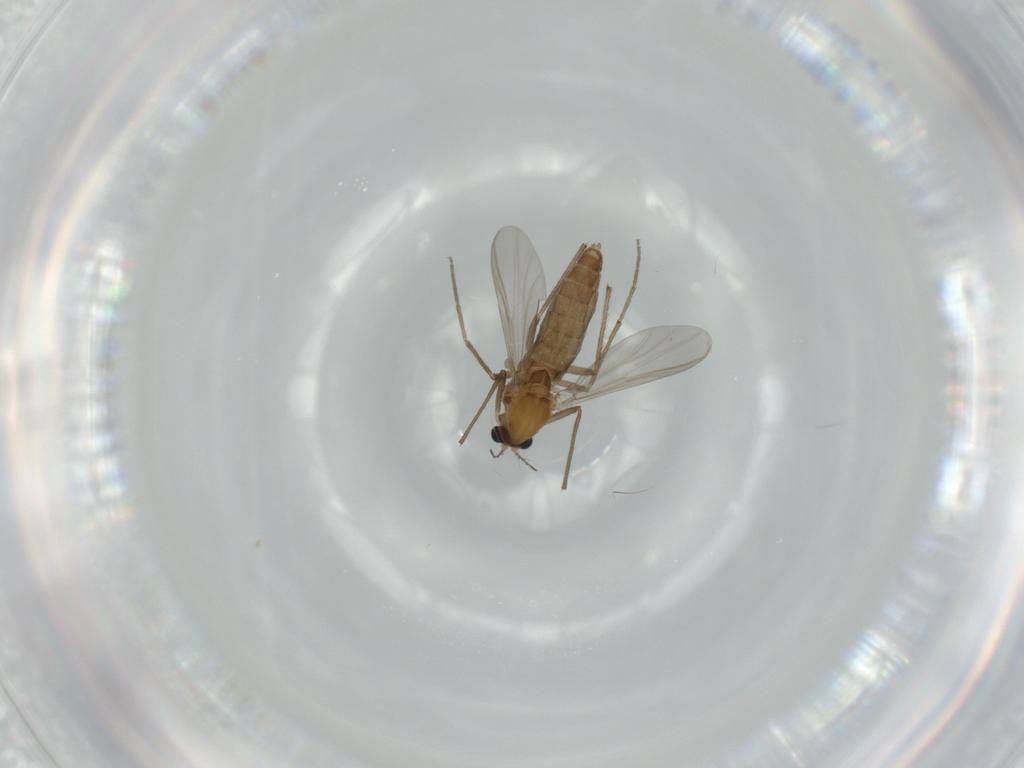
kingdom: Animalia
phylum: Arthropoda
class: Insecta
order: Diptera
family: Chironomidae
